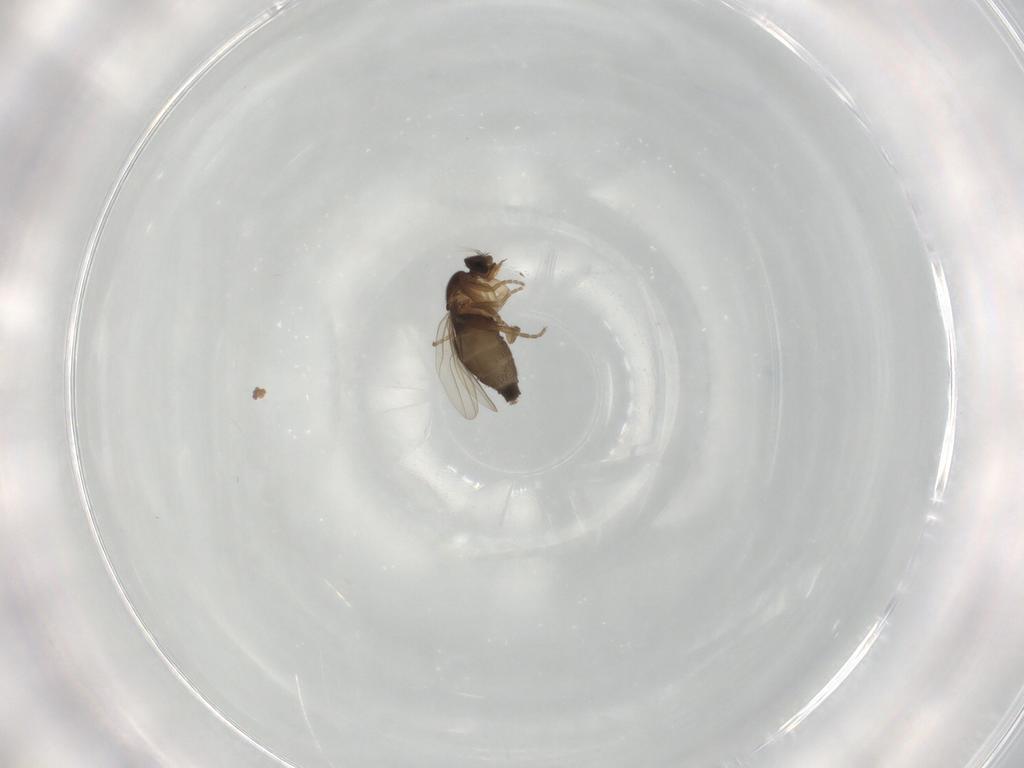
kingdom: Animalia
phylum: Arthropoda
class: Insecta
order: Diptera
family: Phoridae
